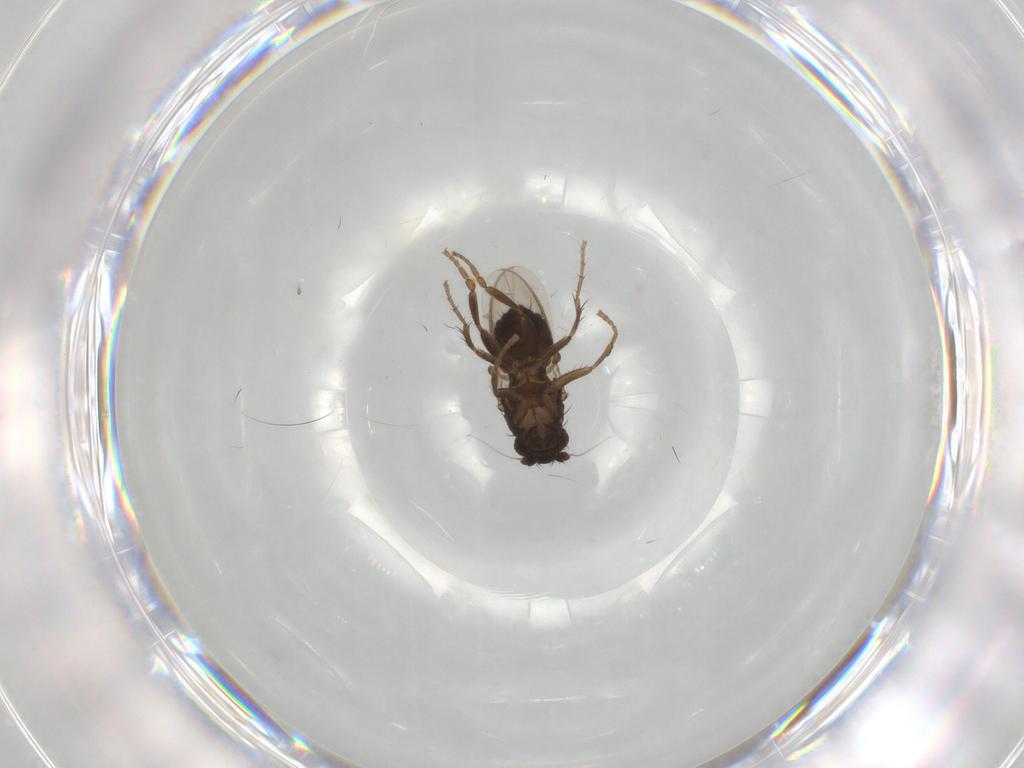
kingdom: Animalia
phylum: Arthropoda
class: Insecta
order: Diptera
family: Sphaeroceridae
